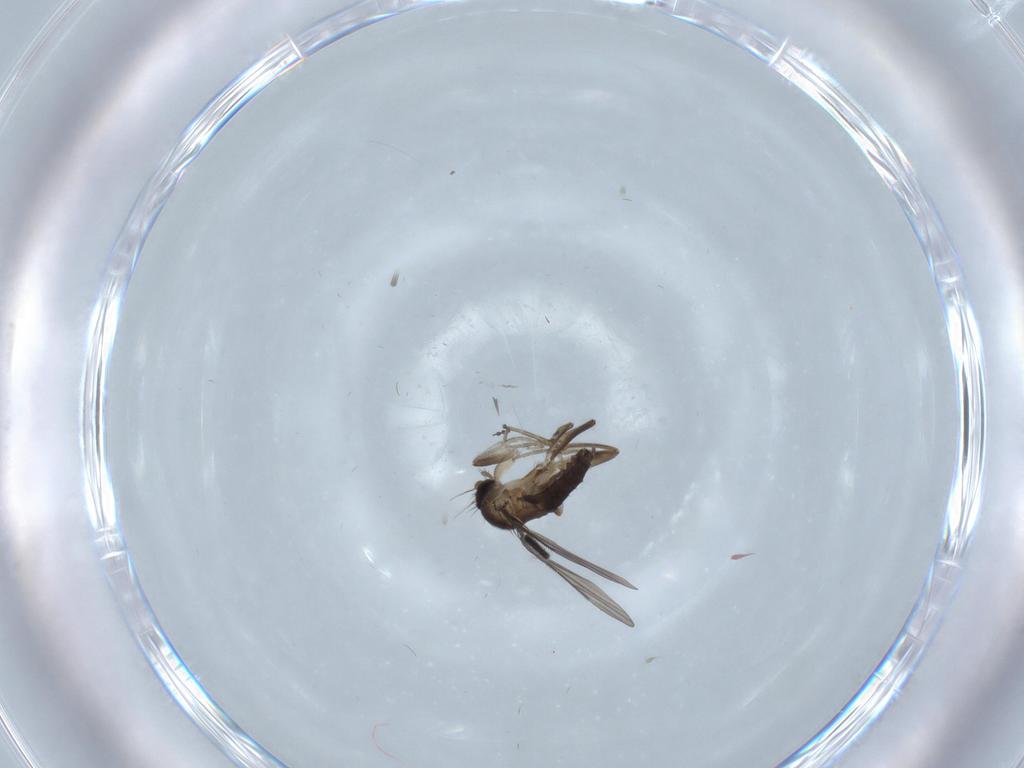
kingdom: Animalia
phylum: Arthropoda
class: Insecta
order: Diptera
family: Sciaridae
